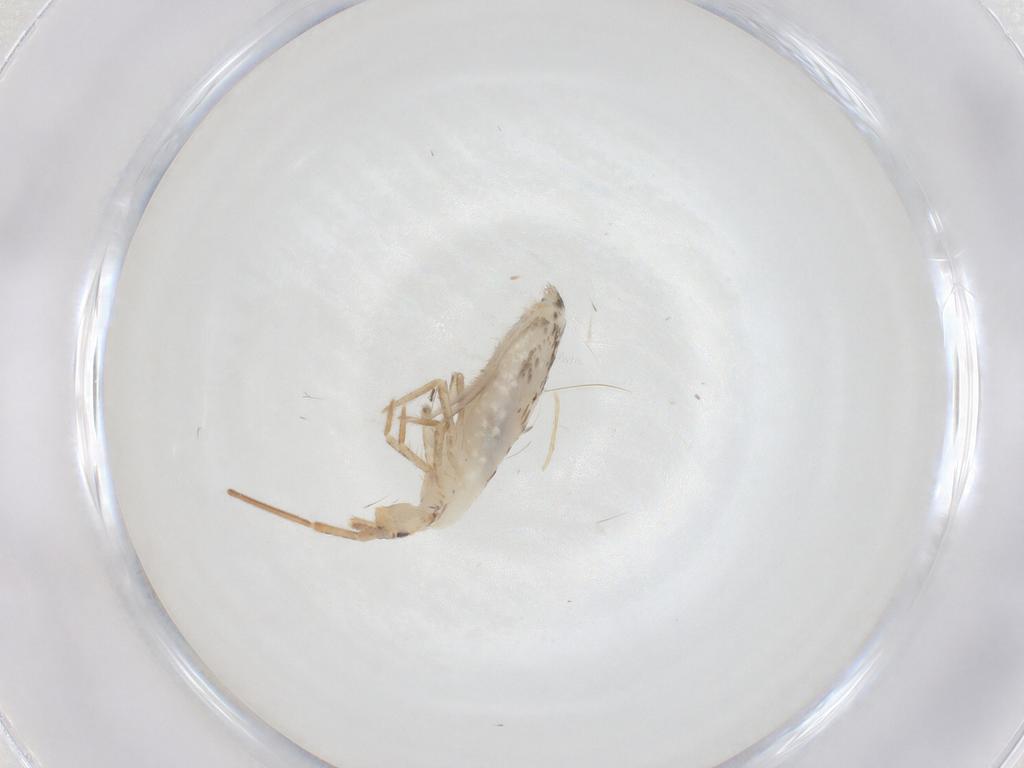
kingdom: Animalia
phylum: Arthropoda
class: Collembola
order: Entomobryomorpha
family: Entomobryidae
